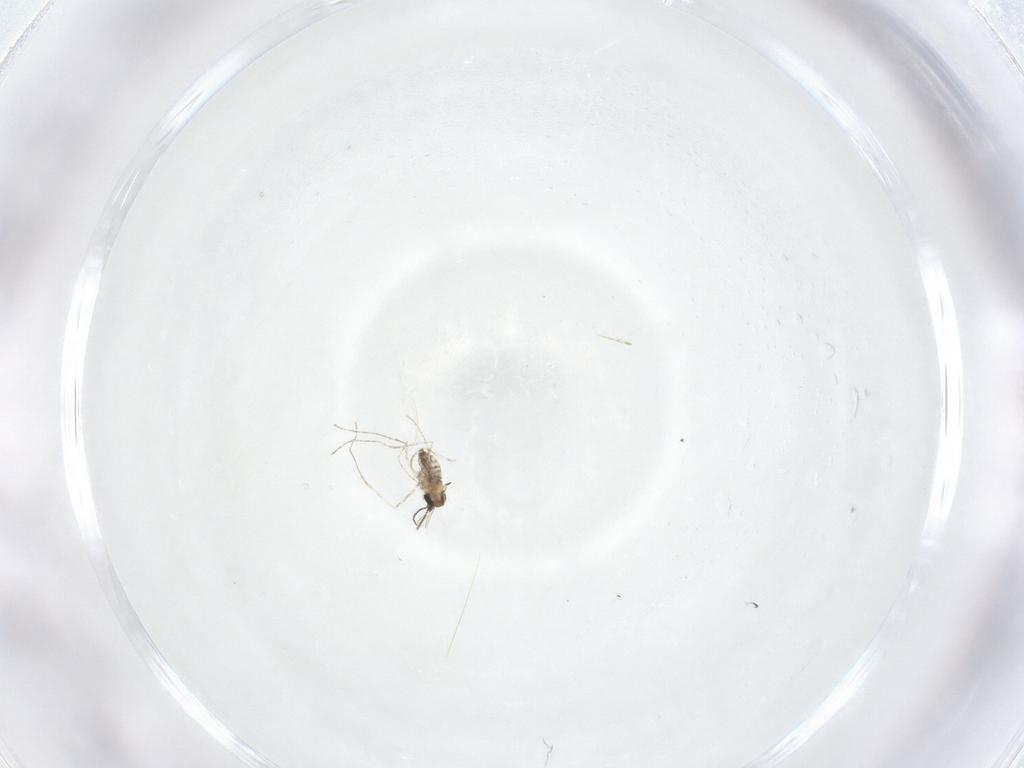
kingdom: Animalia
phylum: Arthropoda
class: Insecta
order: Diptera
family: Cecidomyiidae
